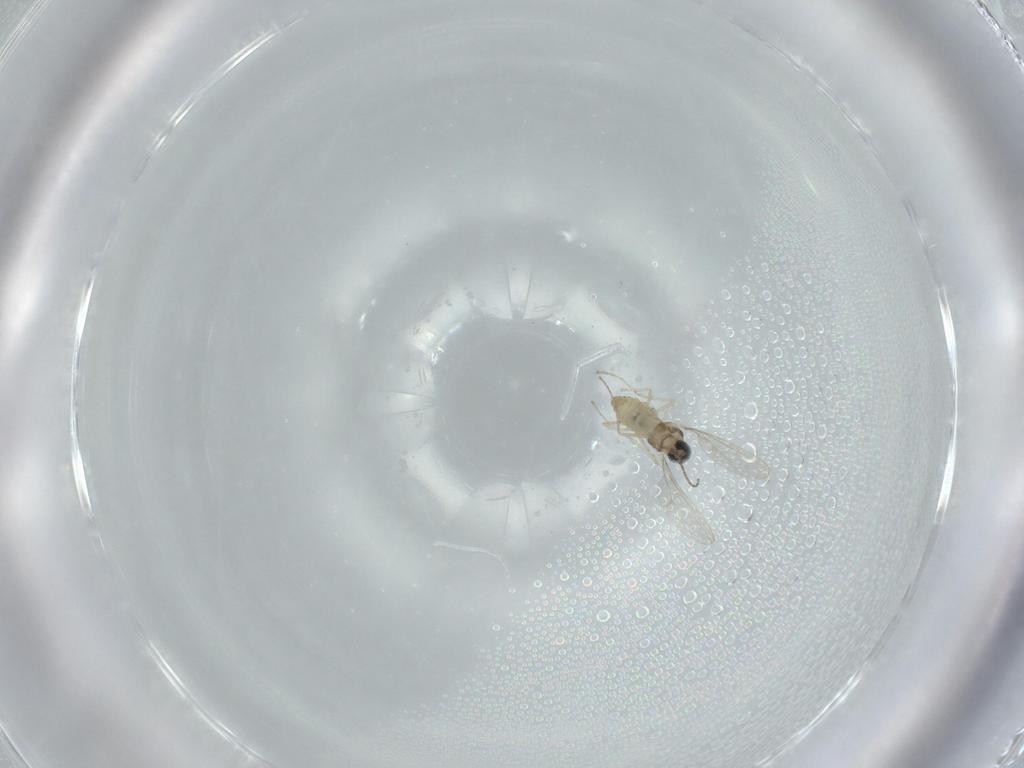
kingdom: Animalia
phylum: Arthropoda
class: Insecta
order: Diptera
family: Cecidomyiidae
